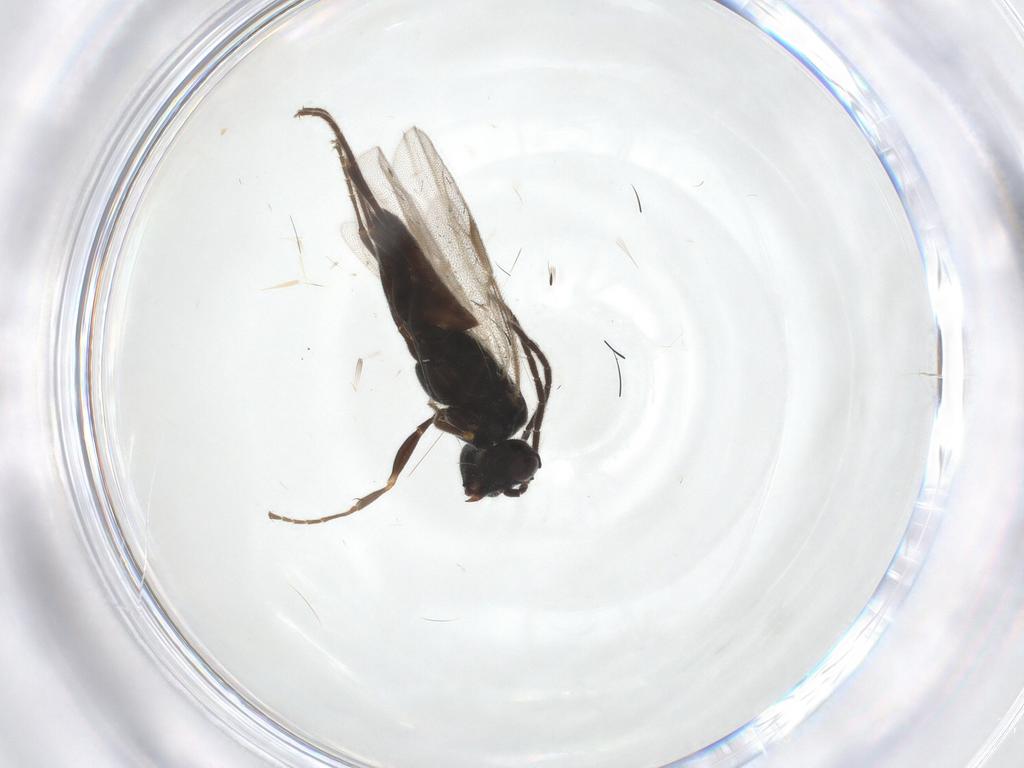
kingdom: Animalia
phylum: Arthropoda
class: Insecta
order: Hymenoptera
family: Dryinidae
